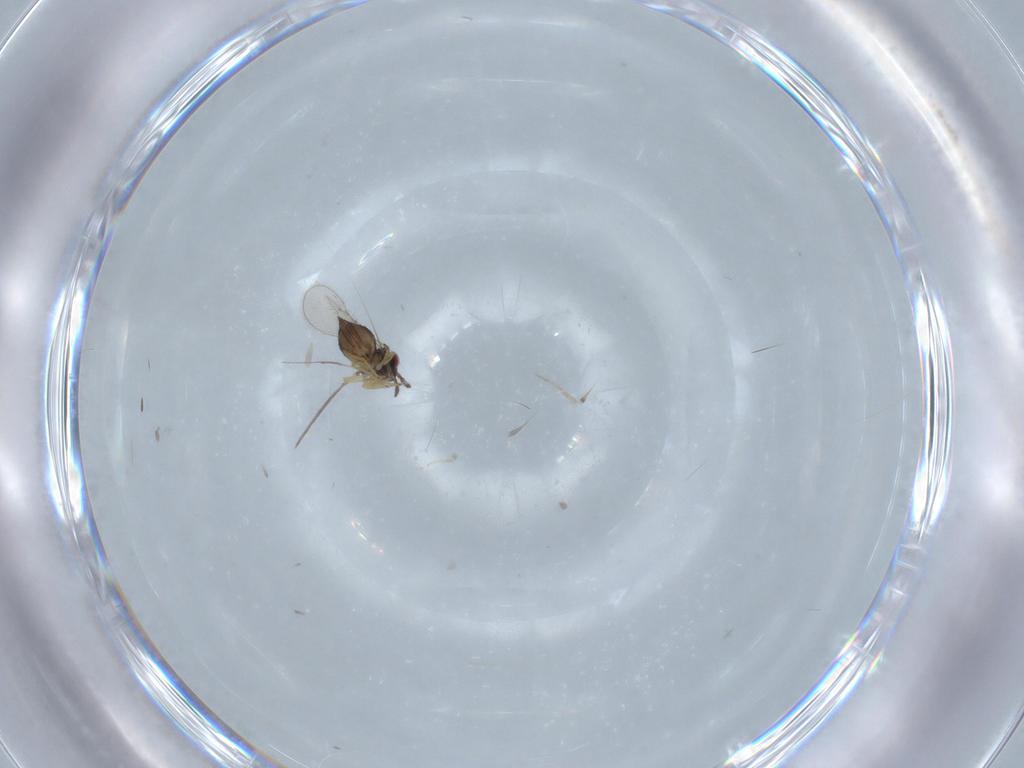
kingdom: Animalia
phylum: Arthropoda
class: Insecta
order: Hymenoptera
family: Eulophidae
